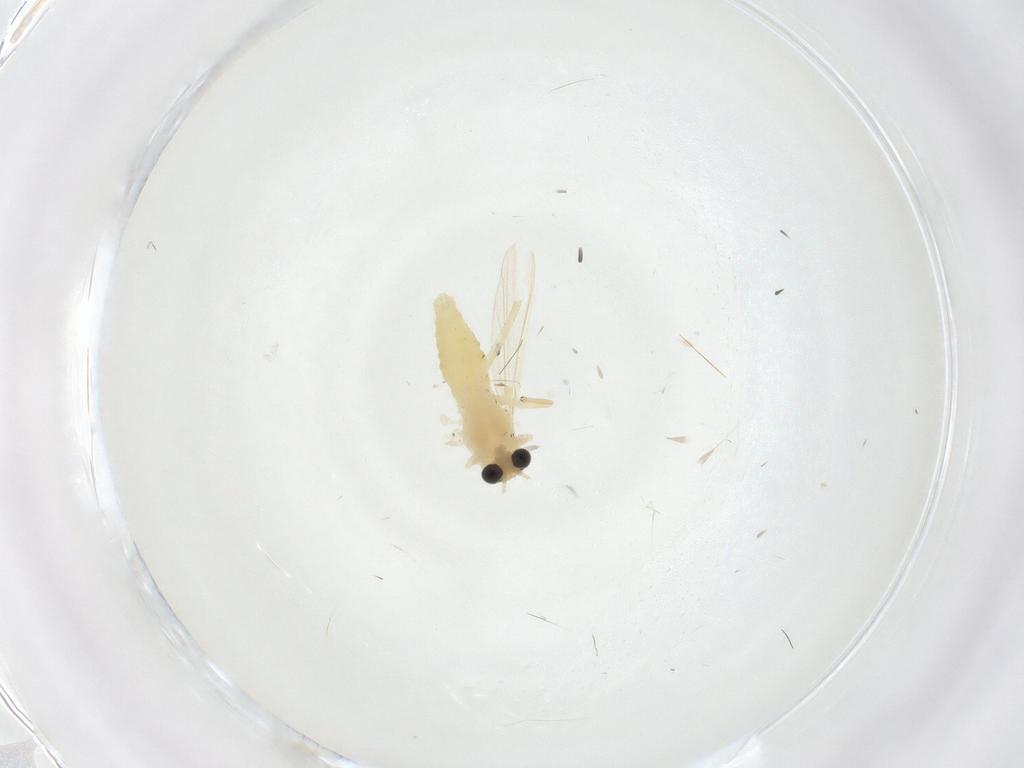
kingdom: Animalia
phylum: Arthropoda
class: Insecta
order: Diptera
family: Chironomidae
